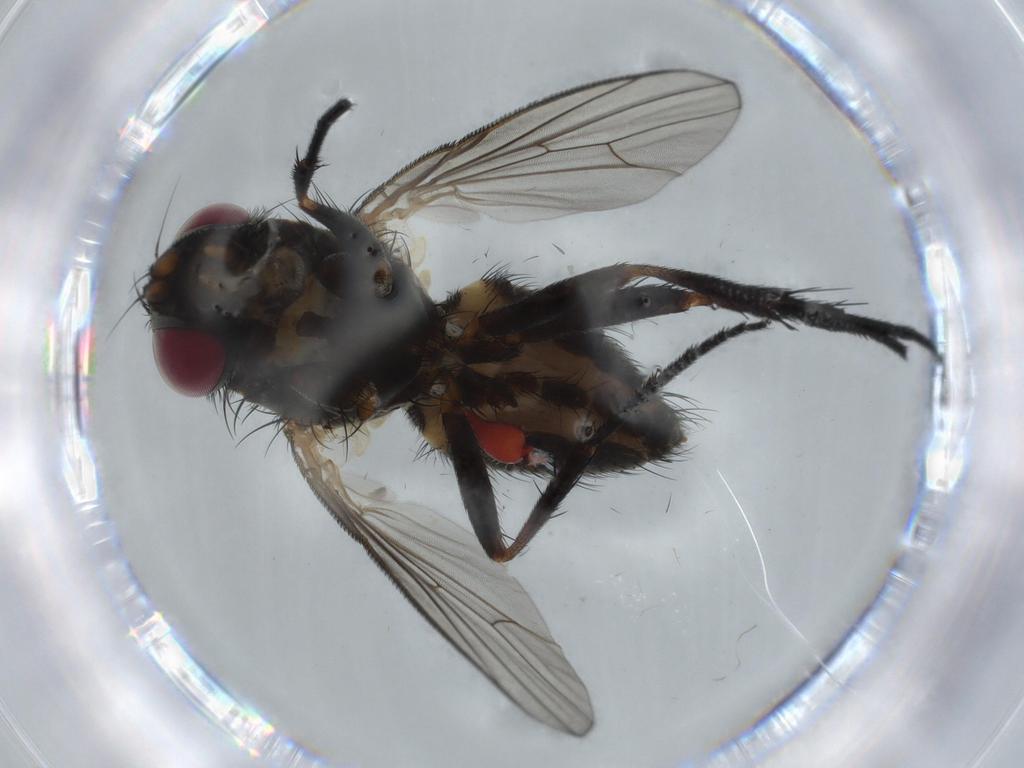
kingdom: Animalia
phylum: Arthropoda
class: Insecta
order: Diptera
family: Psychodidae
